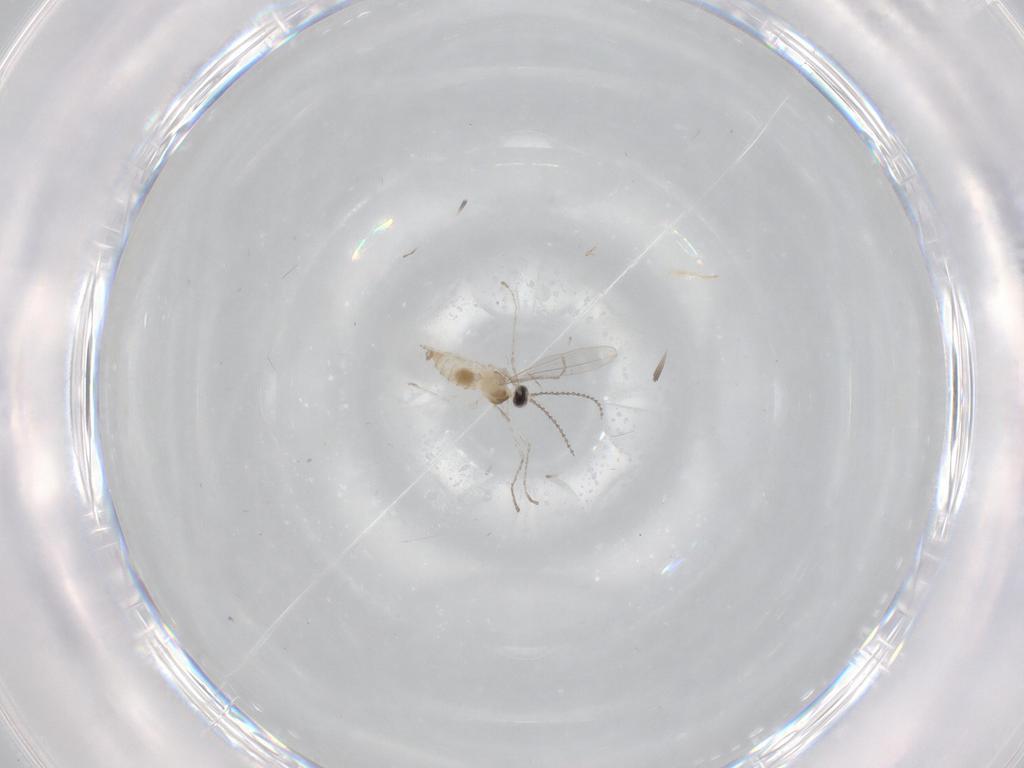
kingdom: Animalia
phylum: Arthropoda
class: Insecta
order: Diptera
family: Cecidomyiidae
